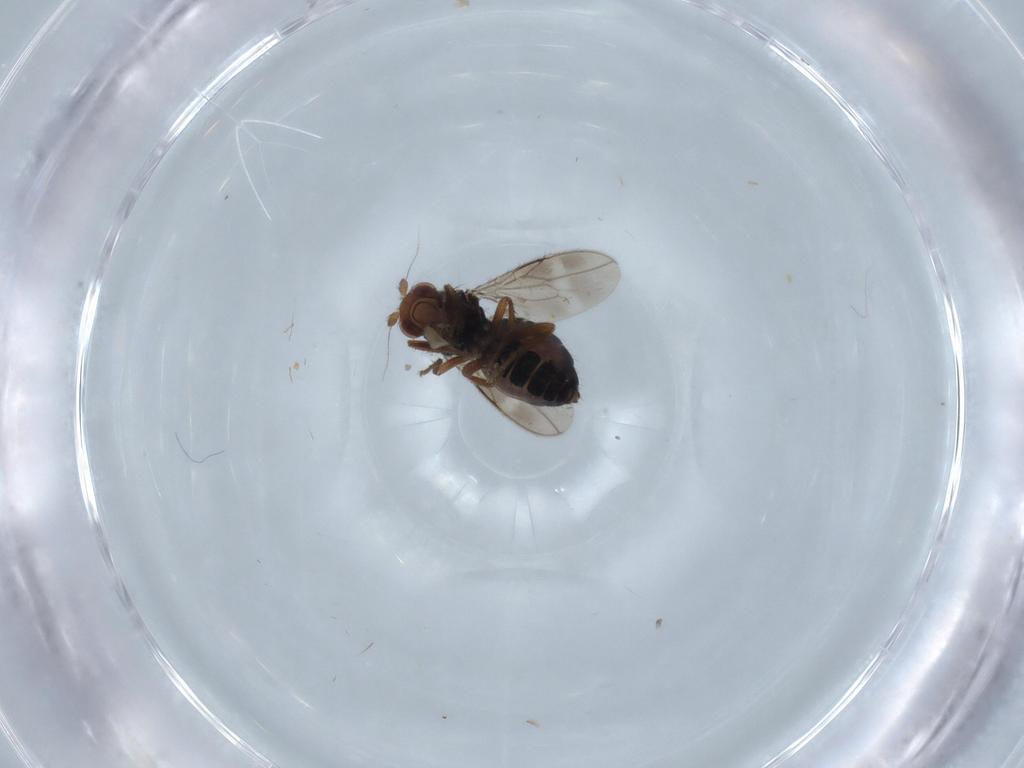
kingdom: Animalia
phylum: Arthropoda
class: Insecta
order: Diptera
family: Sphaeroceridae
